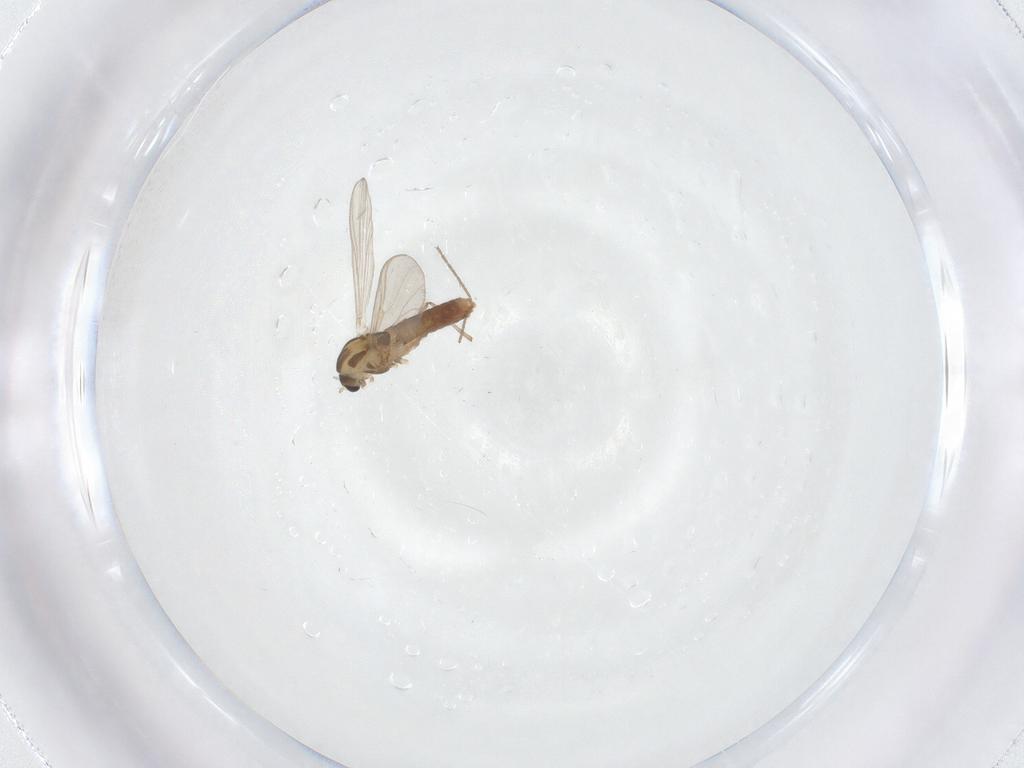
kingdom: Animalia
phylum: Arthropoda
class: Insecta
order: Diptera
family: Chironomidae
